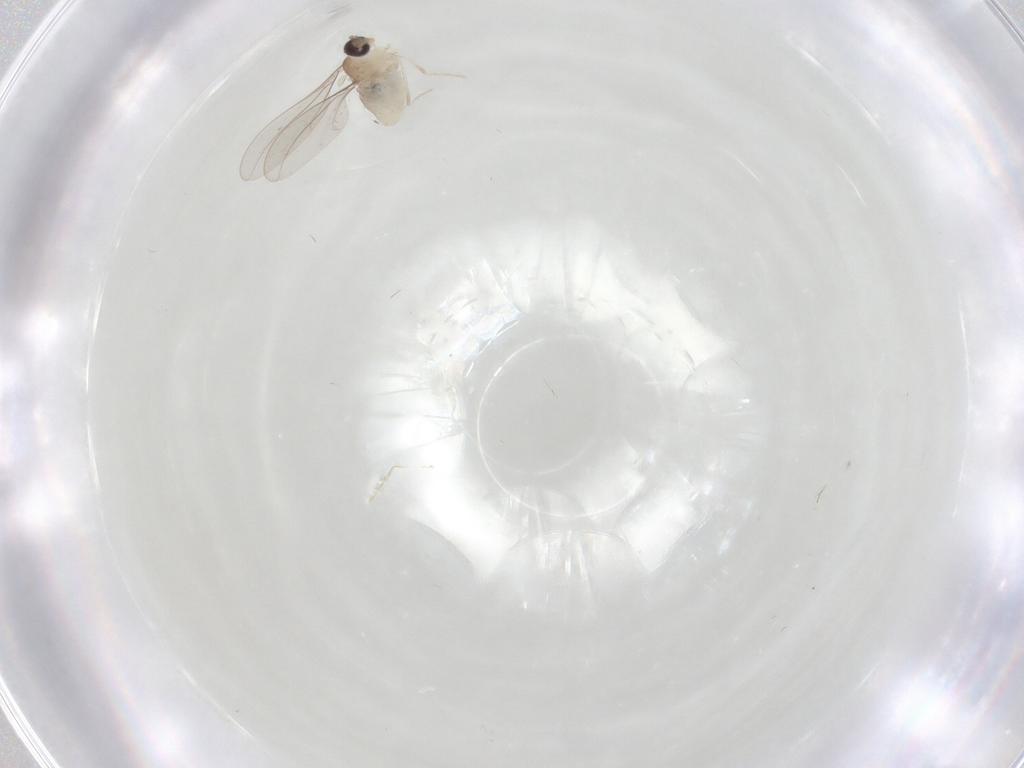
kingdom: Animalia
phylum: Arthropoda
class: Insecta
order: Diptera
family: Cecidomyiidae
